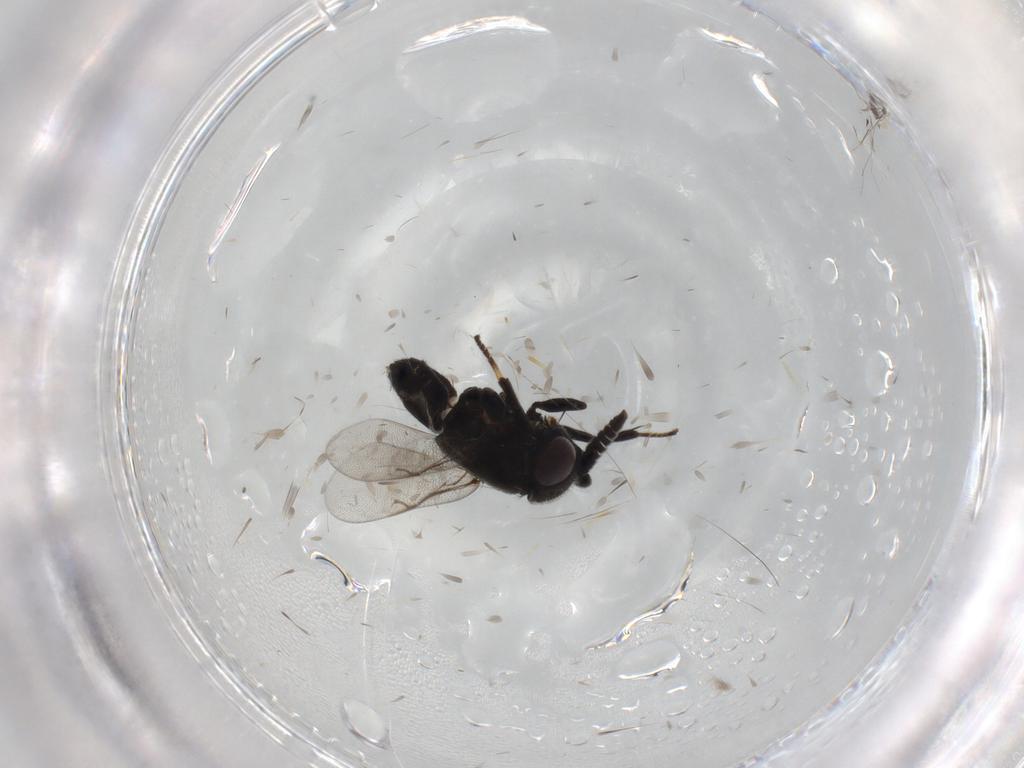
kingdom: Animalia
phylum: Arthropoda
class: Insecta
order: Hymenoptera
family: Encyrtidae
